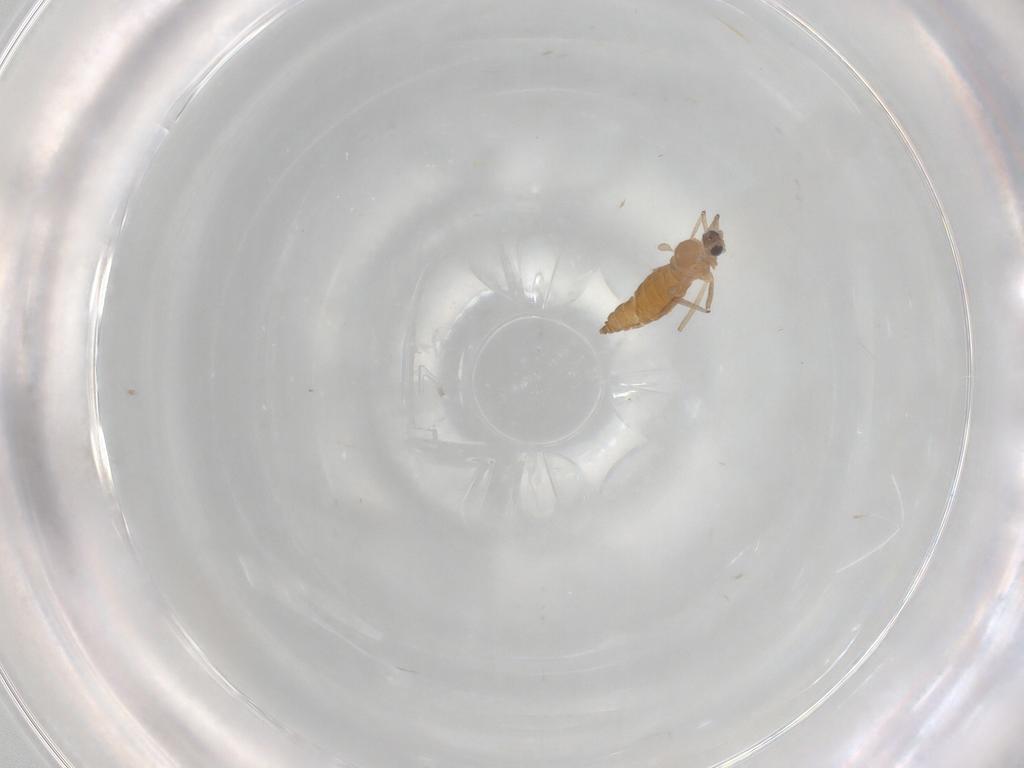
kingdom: Animalia
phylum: Arthropoda
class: Insecta
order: Diptera
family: Cecidomyiidae
